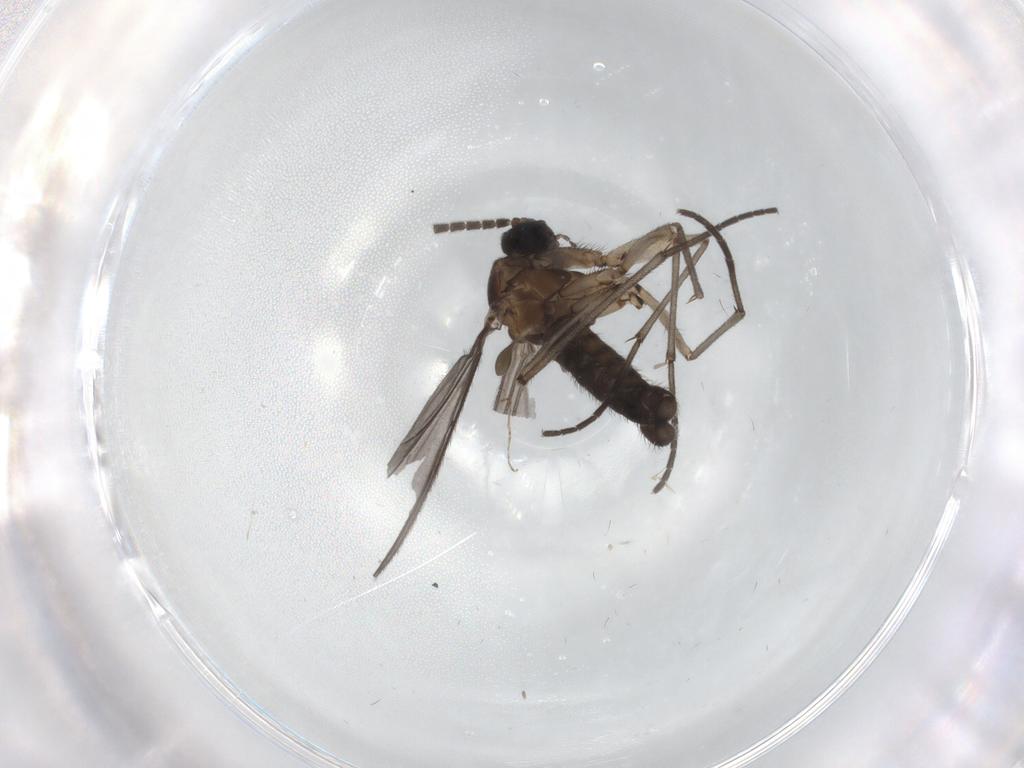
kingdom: Animalia
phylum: Arthropoda
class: Insecta
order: Diptera
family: Sciaridae
